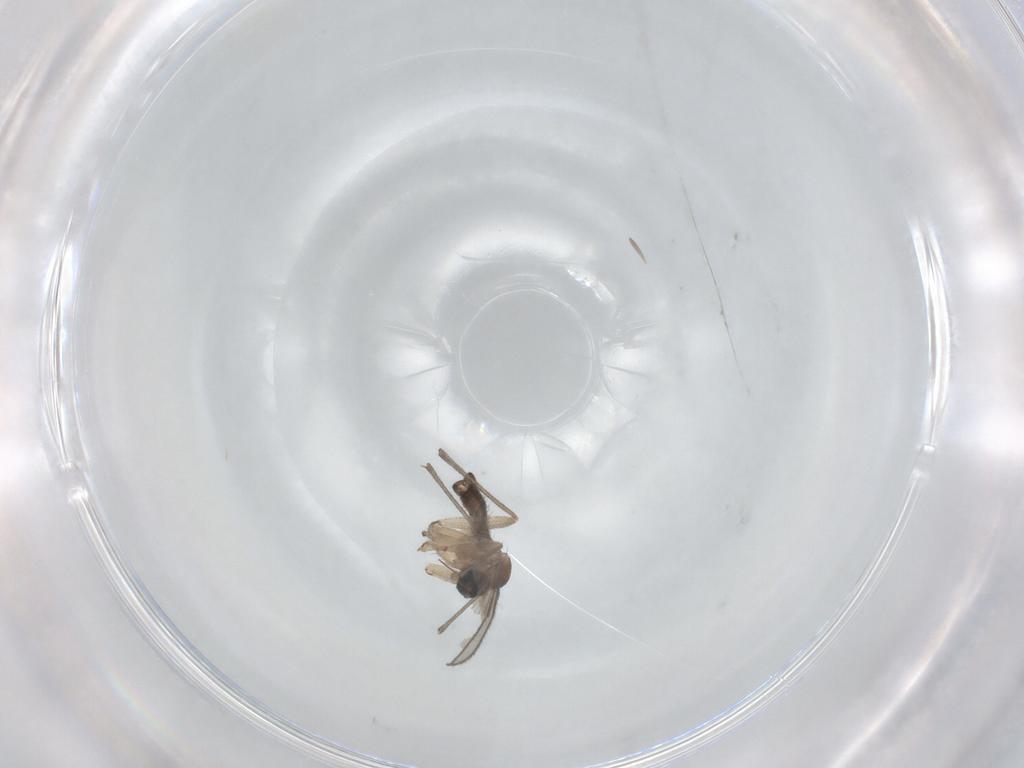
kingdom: Animalia
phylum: Arthropoda
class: Insecta
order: Diptera
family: Sciaridae
